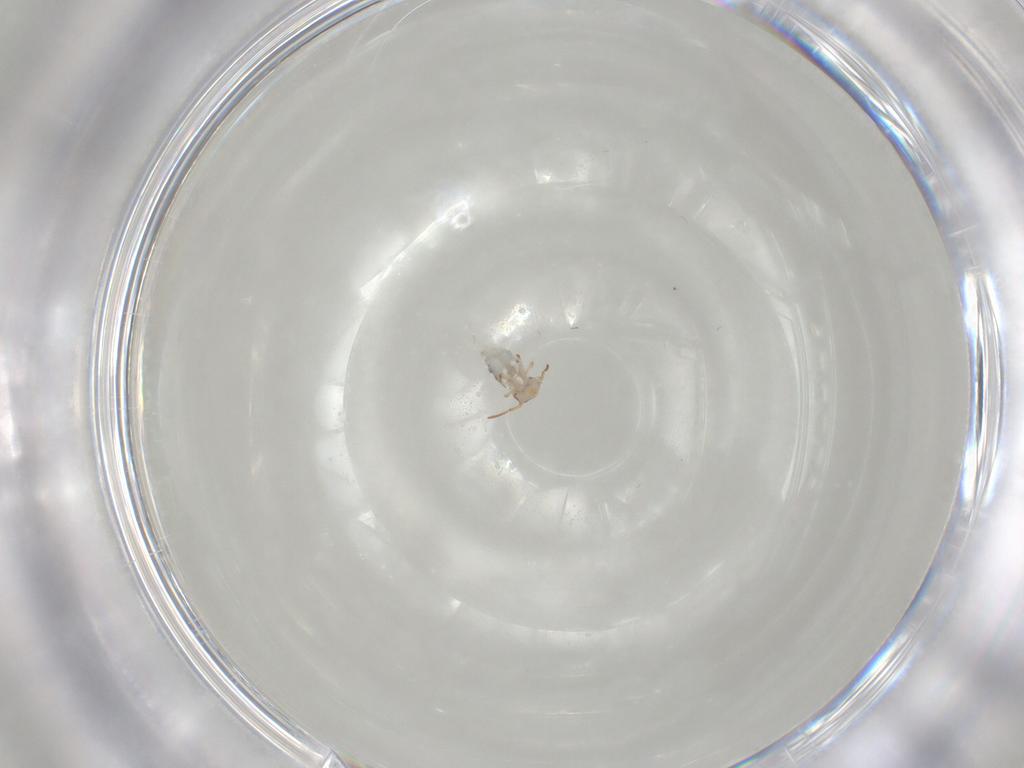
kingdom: Animalia
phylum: Arthropoda
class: Collembola
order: Symphypleona
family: Bourletiellidae
